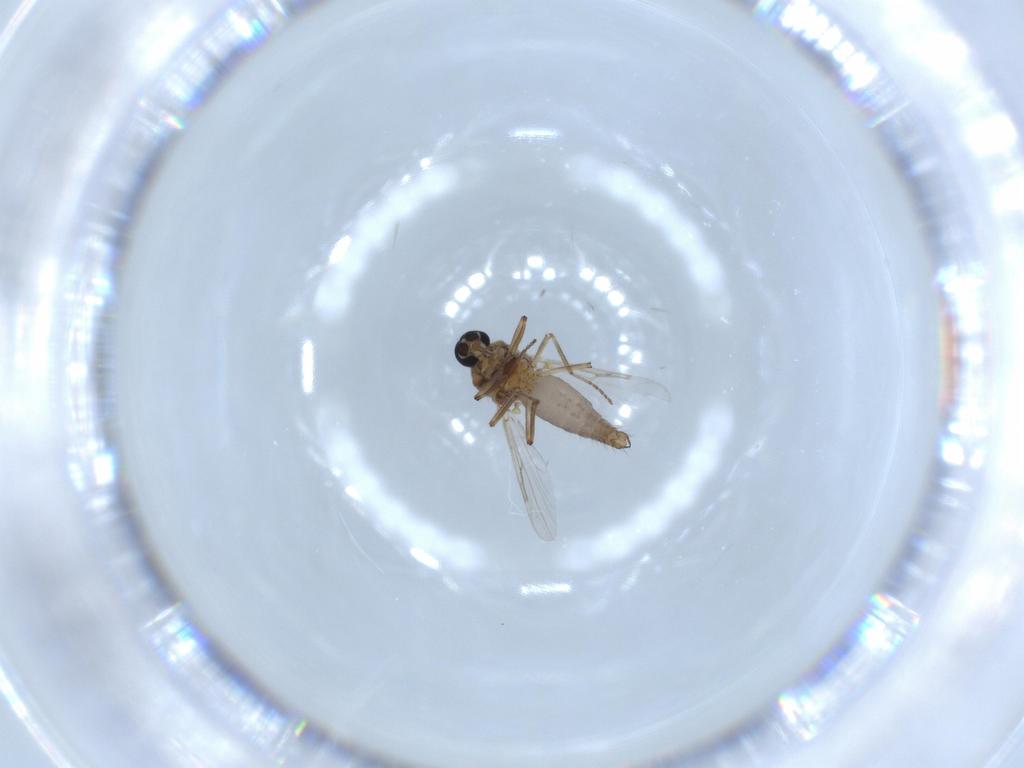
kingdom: Animalia
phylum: Arthropoda
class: Insecta
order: Diptera
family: Ceratopogonidae
